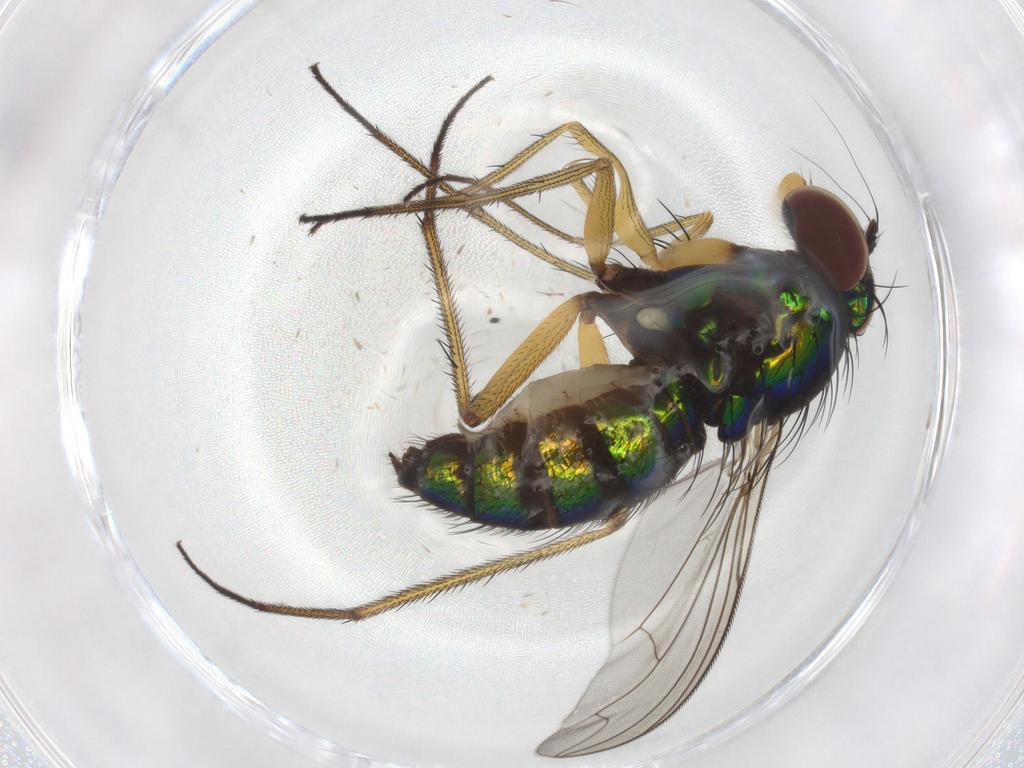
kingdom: Animalia
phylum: Arthropoda
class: Insecta
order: Diptera
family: Dolichopodidae
